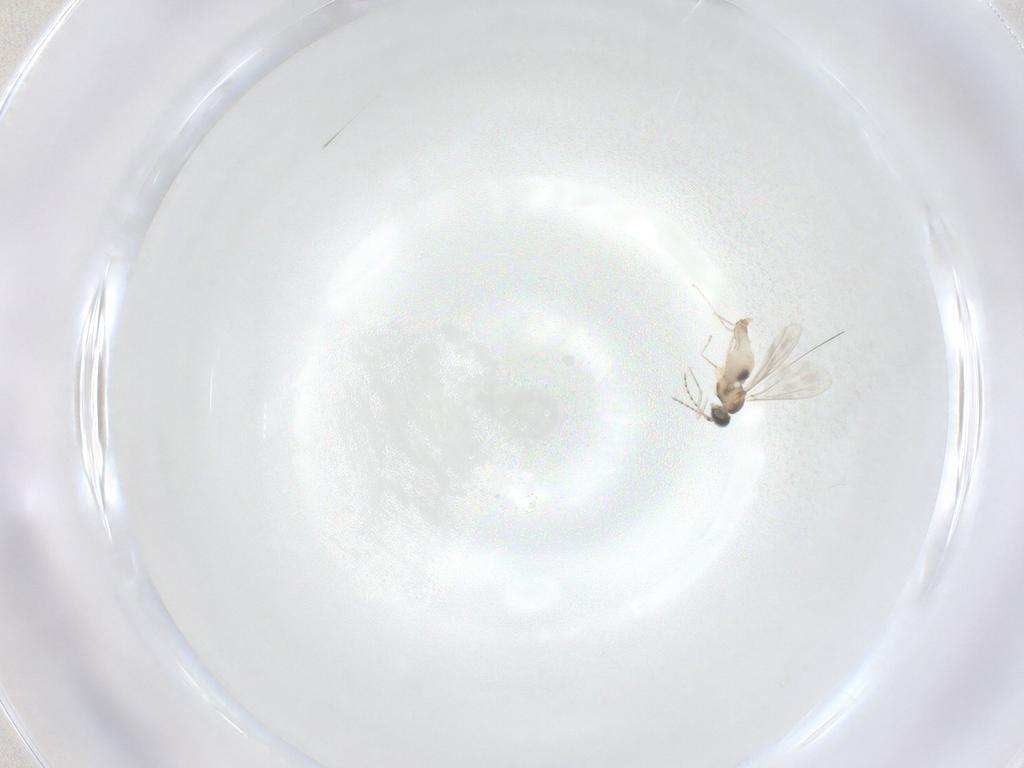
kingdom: Animalia
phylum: Arthropoda
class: Insecta
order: Diptera
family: Cecidomyiidae
